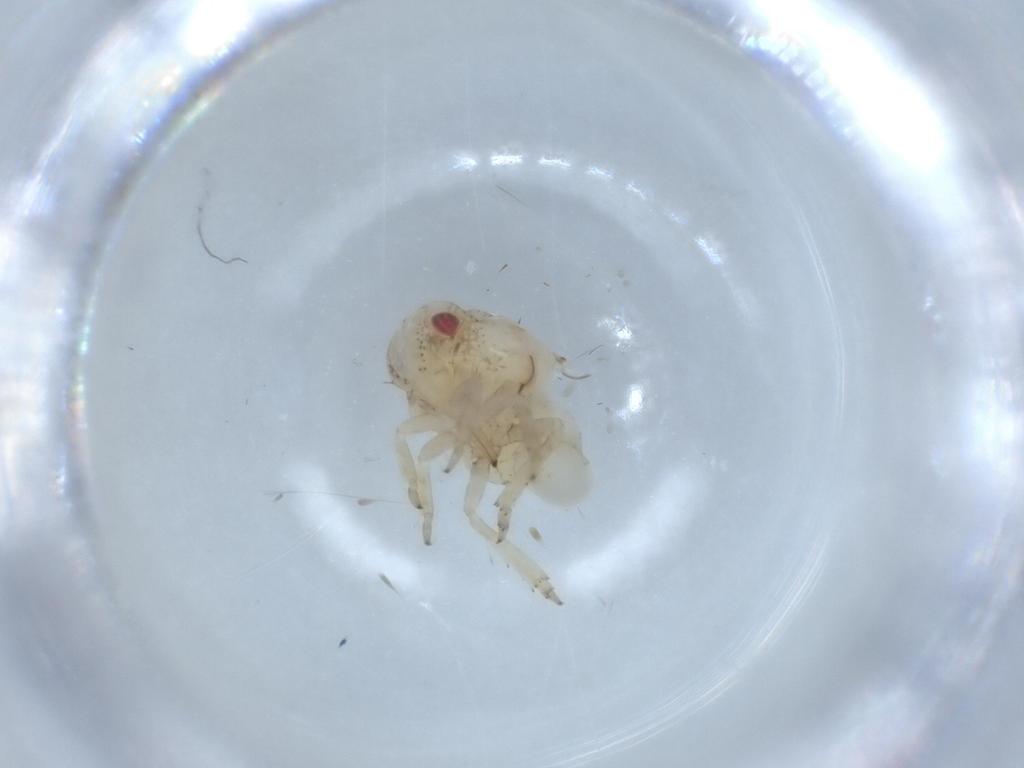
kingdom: Animalia
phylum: Arthropoda
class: Insecta
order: Hemiptera
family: Acanaloniidae
